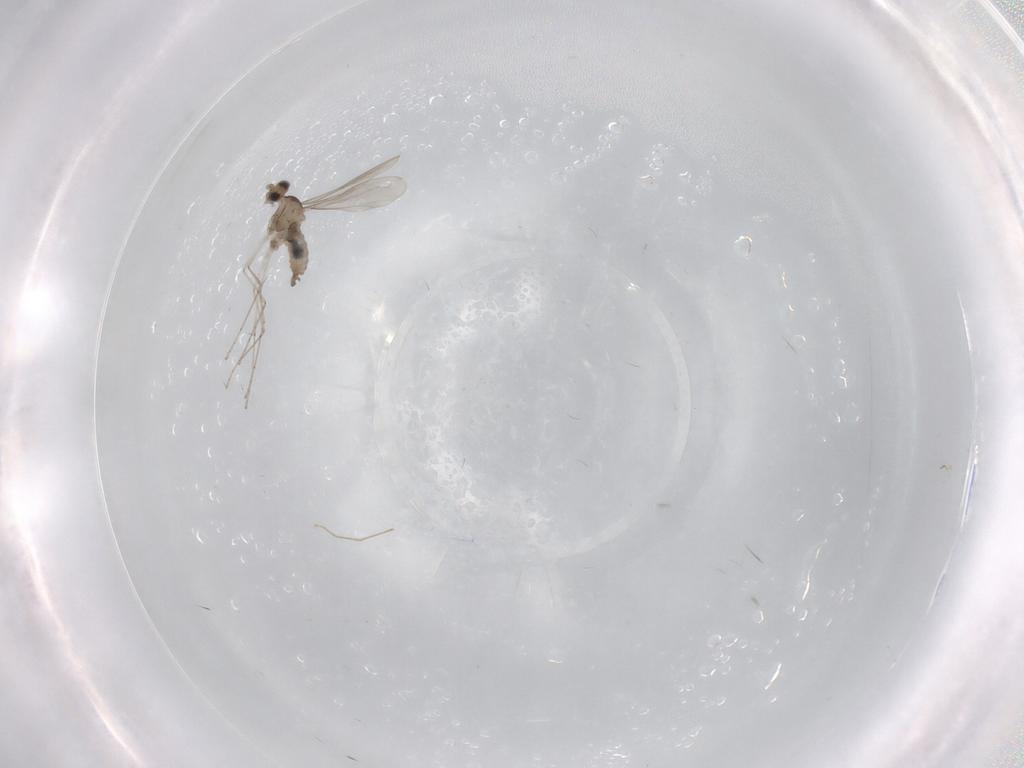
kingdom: Animalia
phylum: Arthropoda
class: Insecta
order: Diptera
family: Cecidomyiidae
